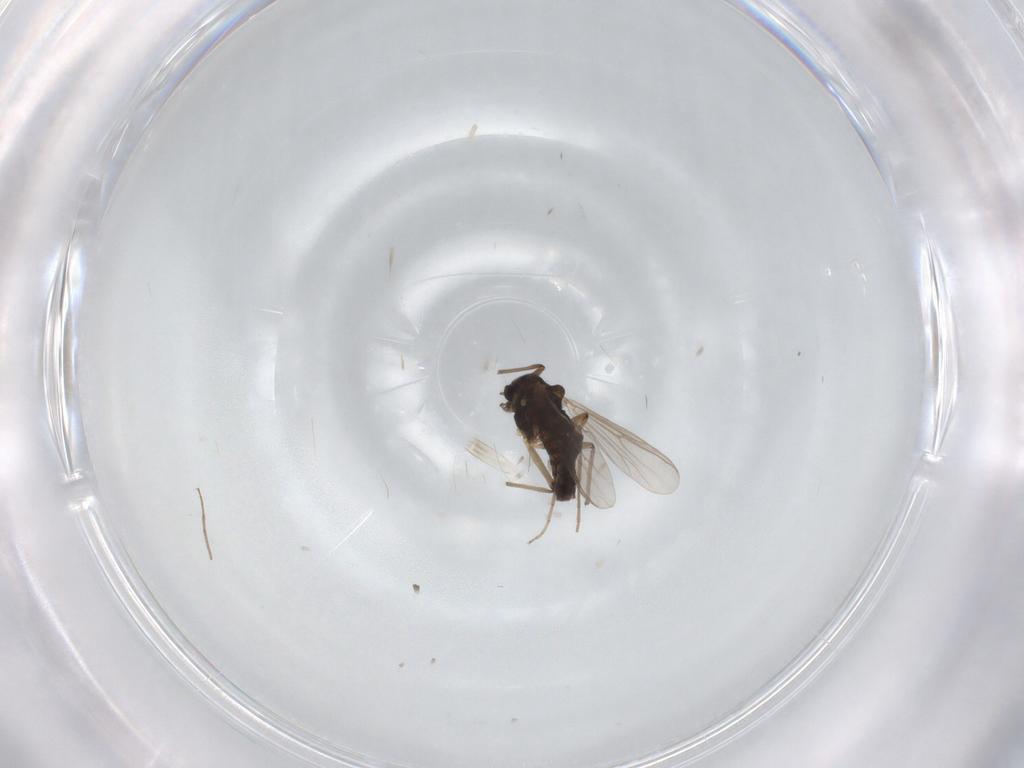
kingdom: Animalia
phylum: Arthropoda
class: Insecta
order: Diptera
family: Chironomidae
